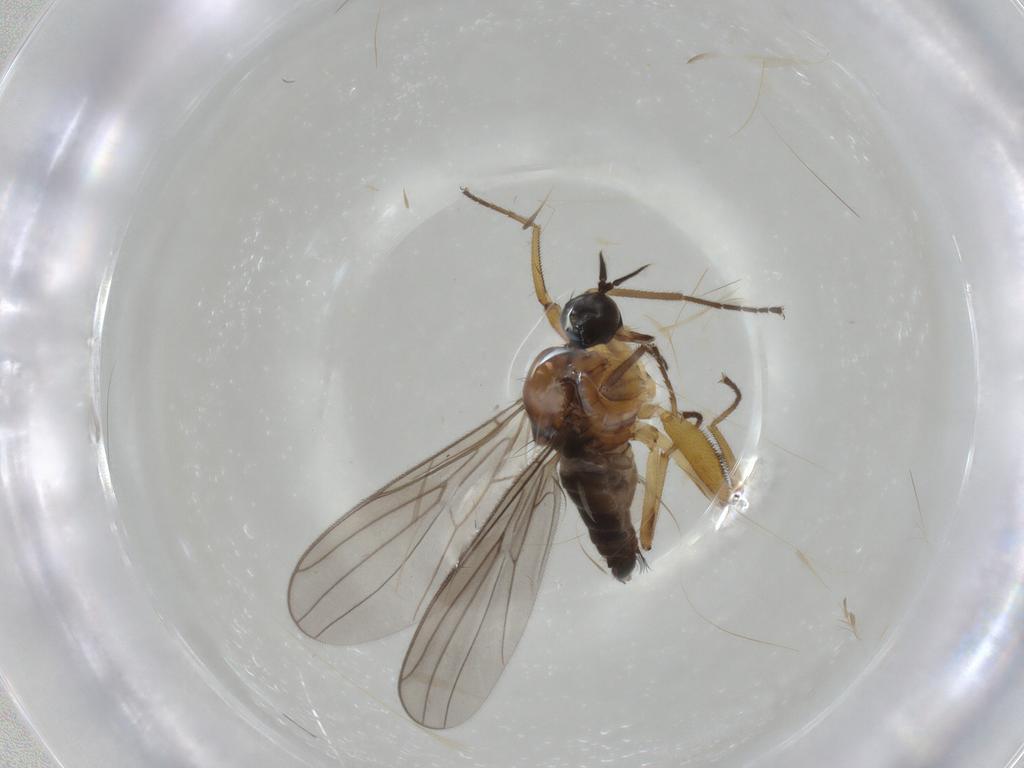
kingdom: Animalia
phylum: Arthropoda
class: Insecta
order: Diptera
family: Hybotidae
